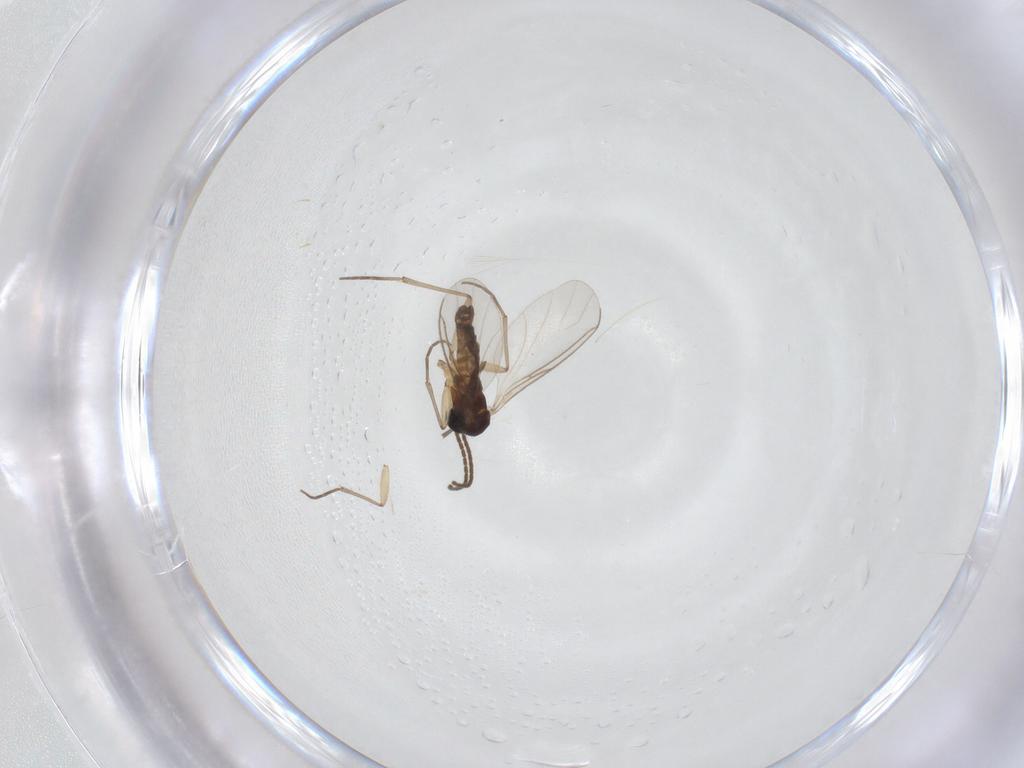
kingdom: Animalia
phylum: Arthropoda
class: Insecta
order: Diptera
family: Sciaridae
